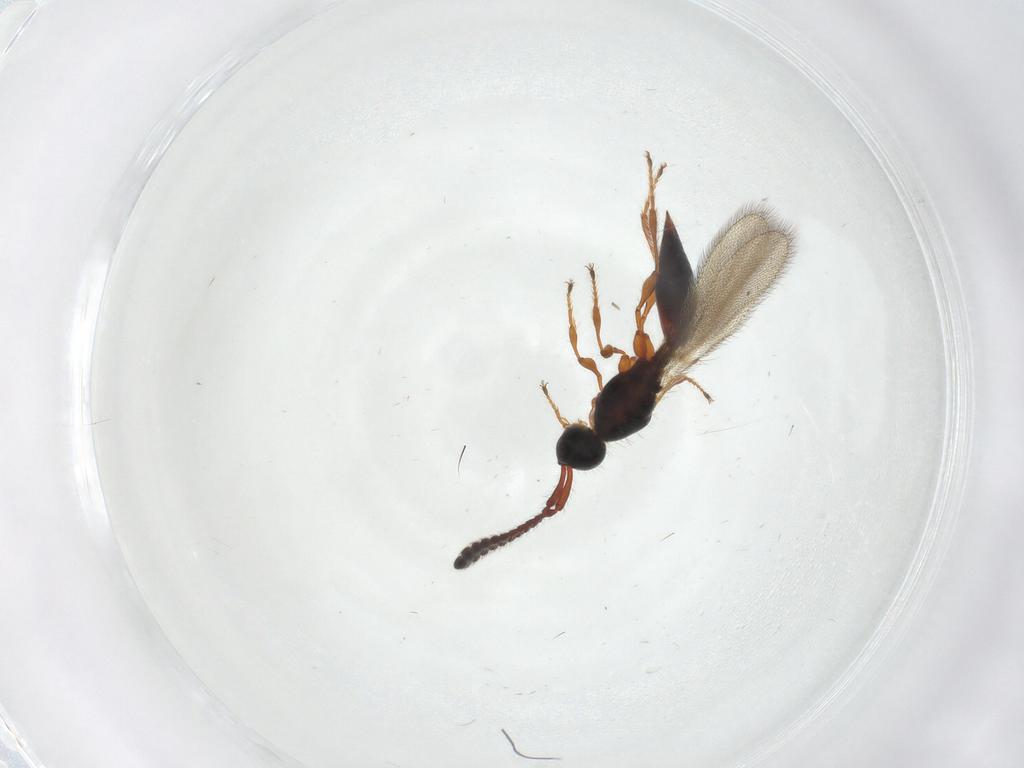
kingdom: Animalia
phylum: Arthropoda
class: Insecta
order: Hymenoptera
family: Diapriidae
